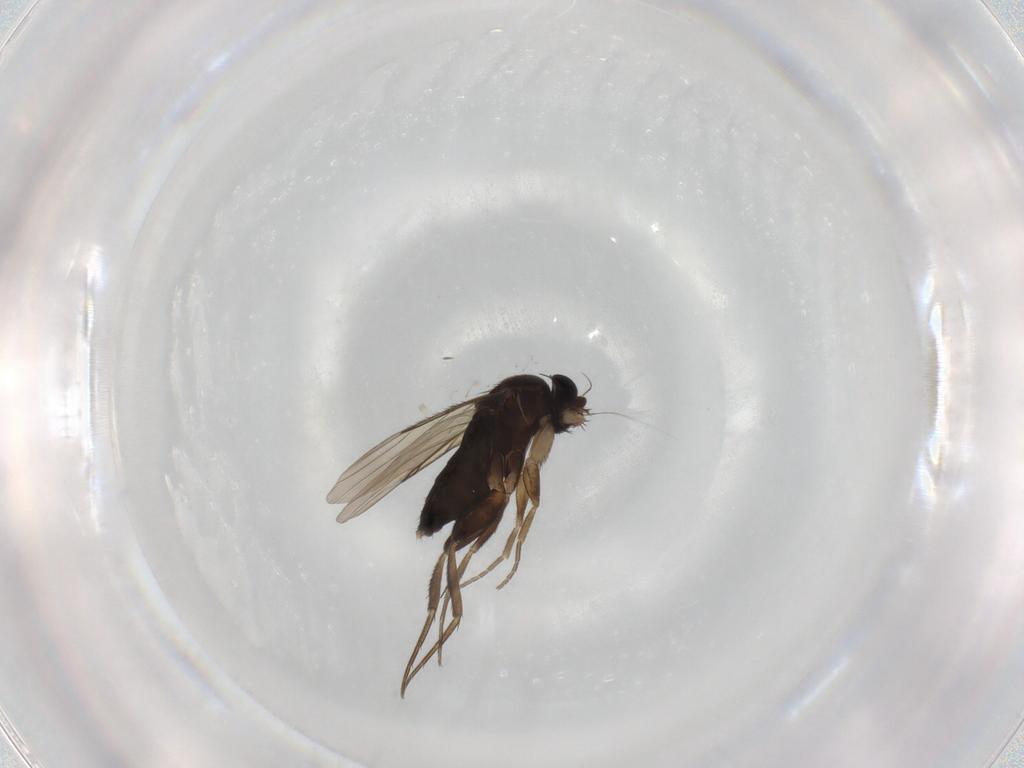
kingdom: Animalia
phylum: Arthropoda
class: Insecta
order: Diptera
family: Phoridae
